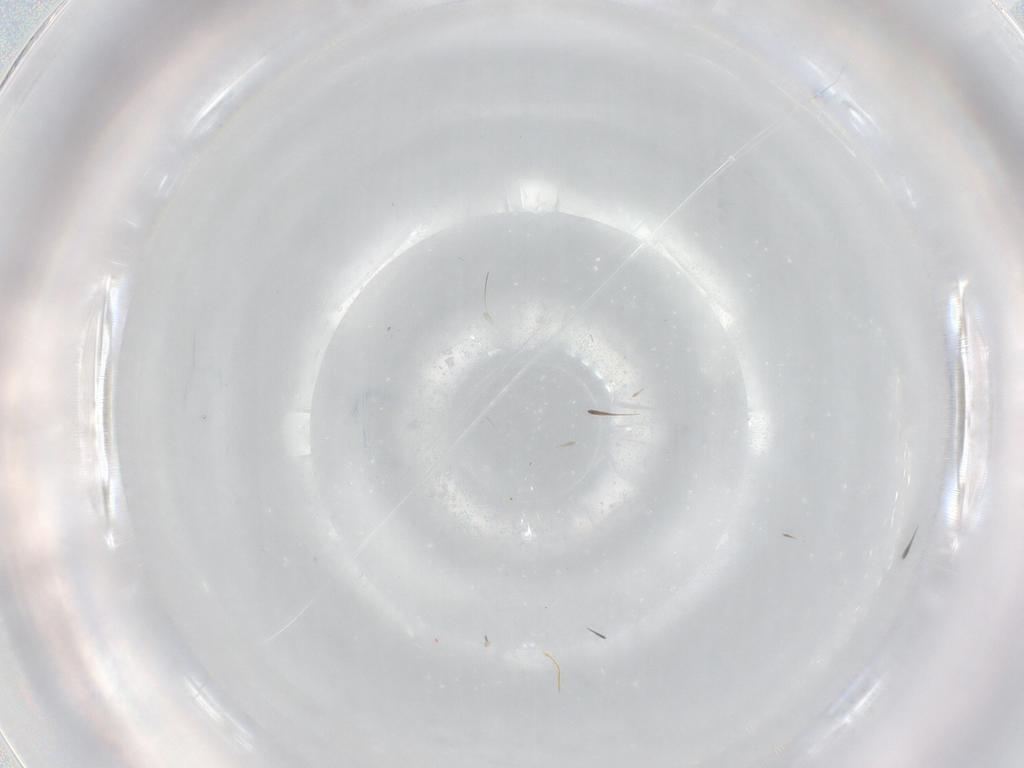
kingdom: Animalia
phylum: Arthropoda
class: Insecta
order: Diptera
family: Cecidomyiidae
